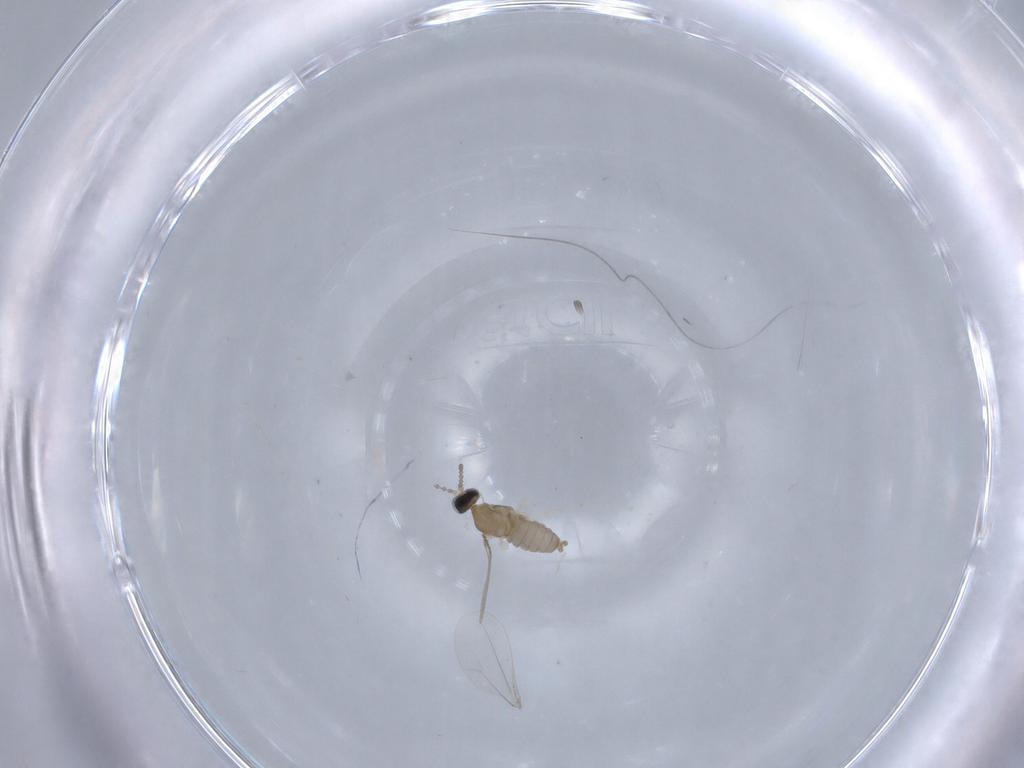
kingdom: Animalia
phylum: Arthropoda
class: Insecta
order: Diptera
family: Cecidomyiidae
